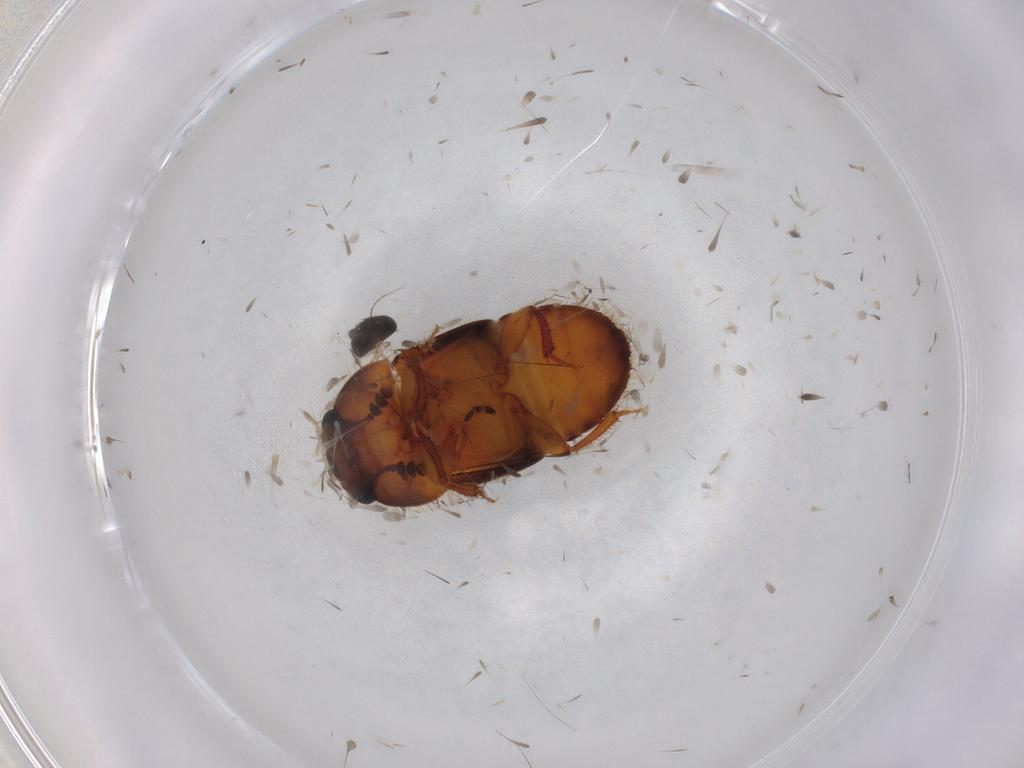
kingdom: Animalia
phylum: Arthropoda
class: Insecta
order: Coleoptera
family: Nitidulidae
